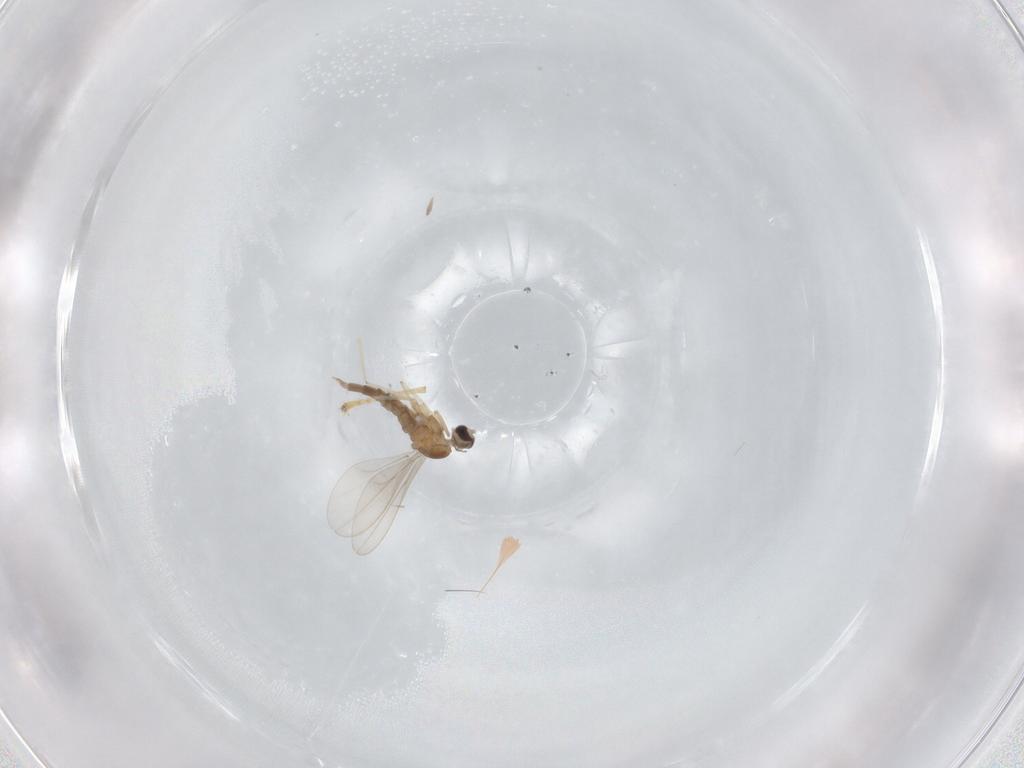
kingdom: Animalia
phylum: Arthropoda
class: Insecta
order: Diptera
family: Cecidomyiidae
